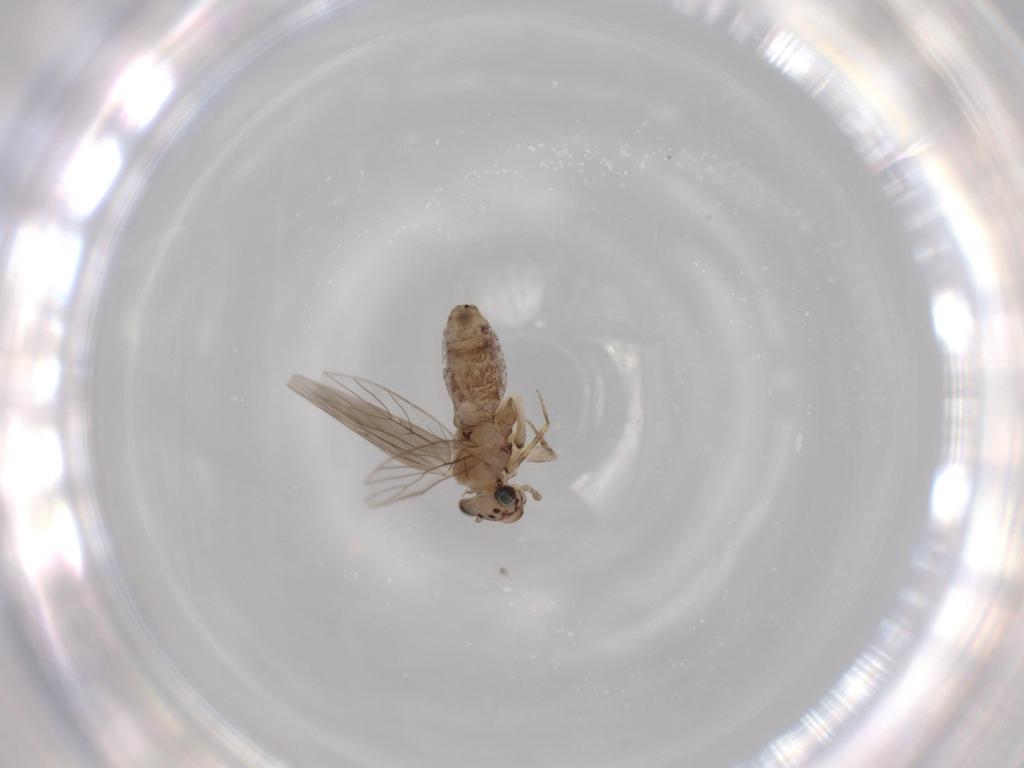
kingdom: Animalia
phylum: Arthropoda
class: Insecta
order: Psocodea
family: Lepidopsocidae
